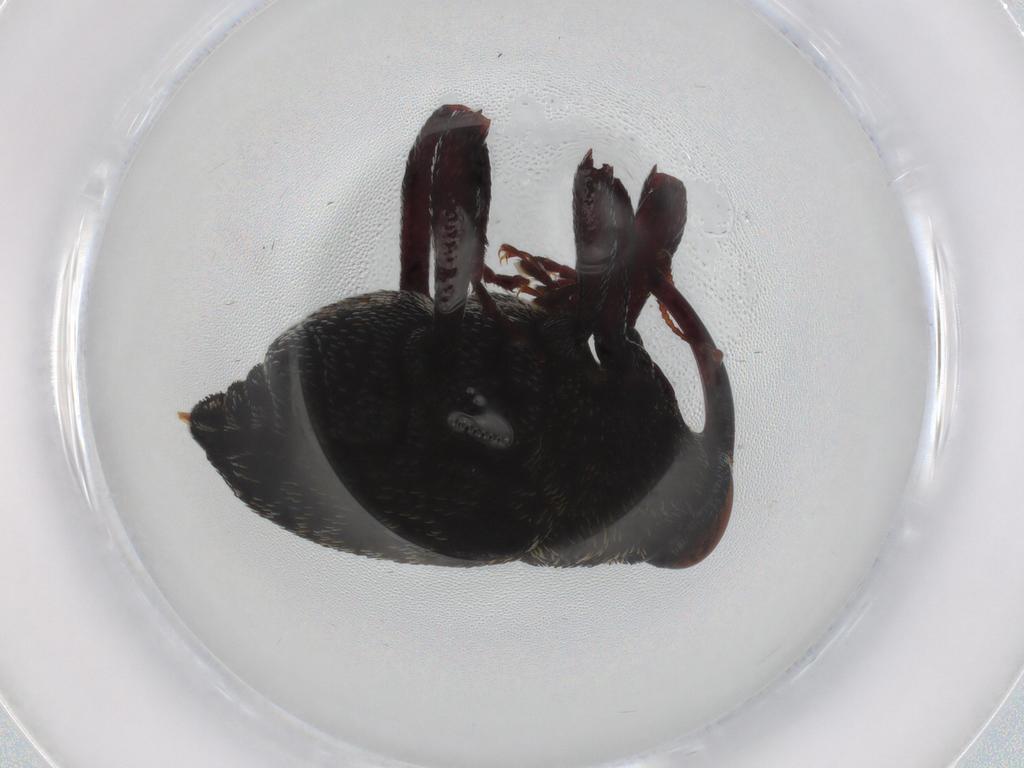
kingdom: Animalia
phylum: Arthropoda
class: Insecta
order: Coleoptera
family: Curculionidae
